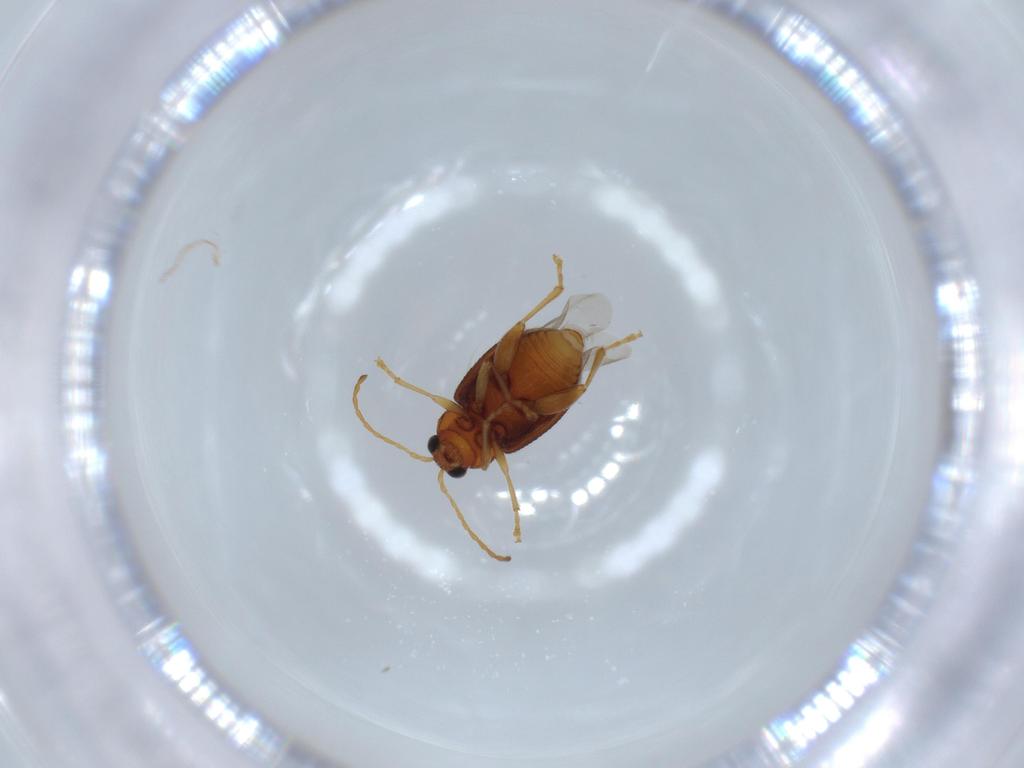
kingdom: Animalia
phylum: Arthropoda
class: Insecta
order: Coleoptera
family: Chrysomelidae
